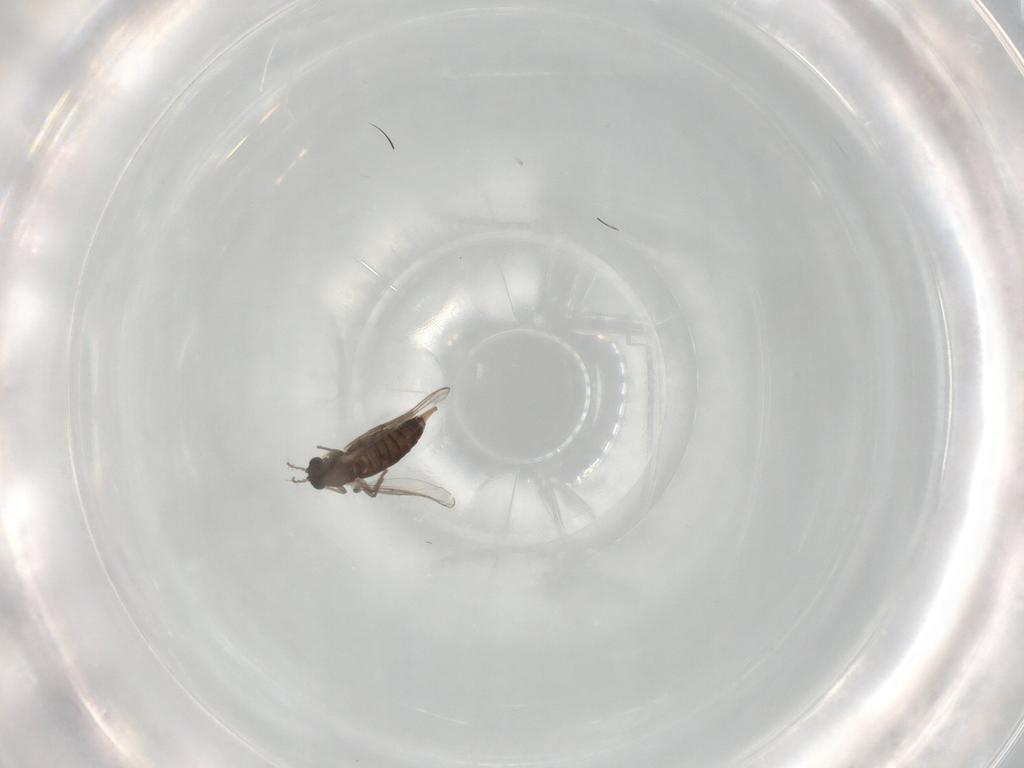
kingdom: Animalia
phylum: Arthropoda
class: Insecta
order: Diptera
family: Chironomidae
